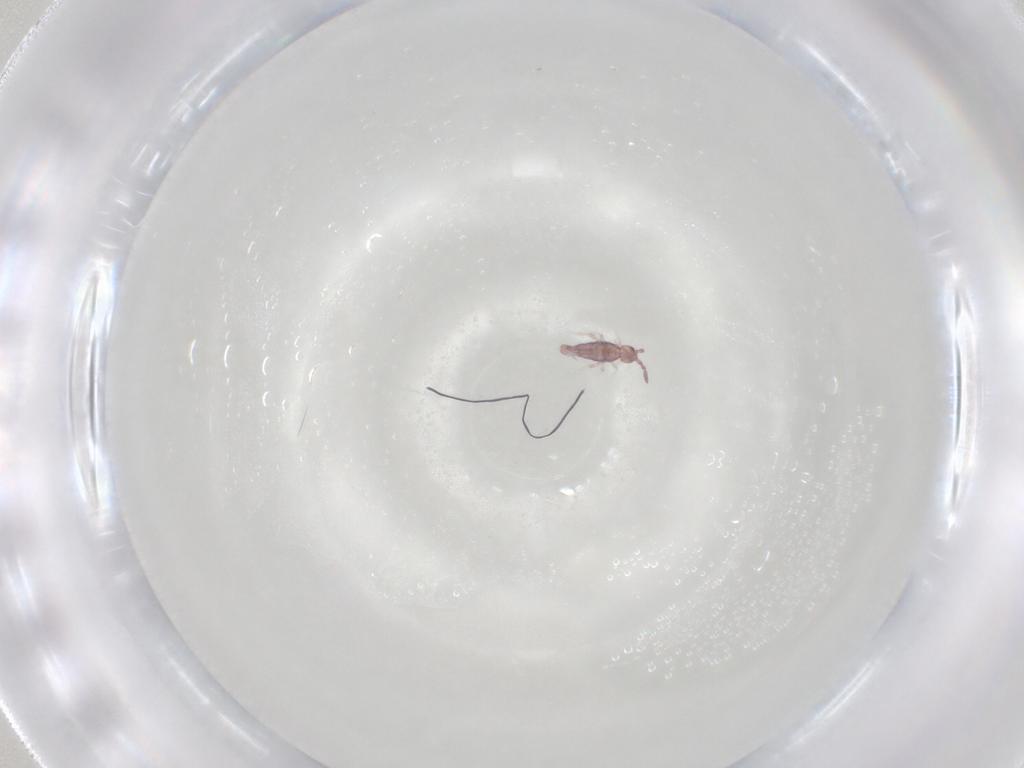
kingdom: Animalia
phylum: Arthropoda
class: Collembola
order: Entomobryomorpha
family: Entomobryidae
